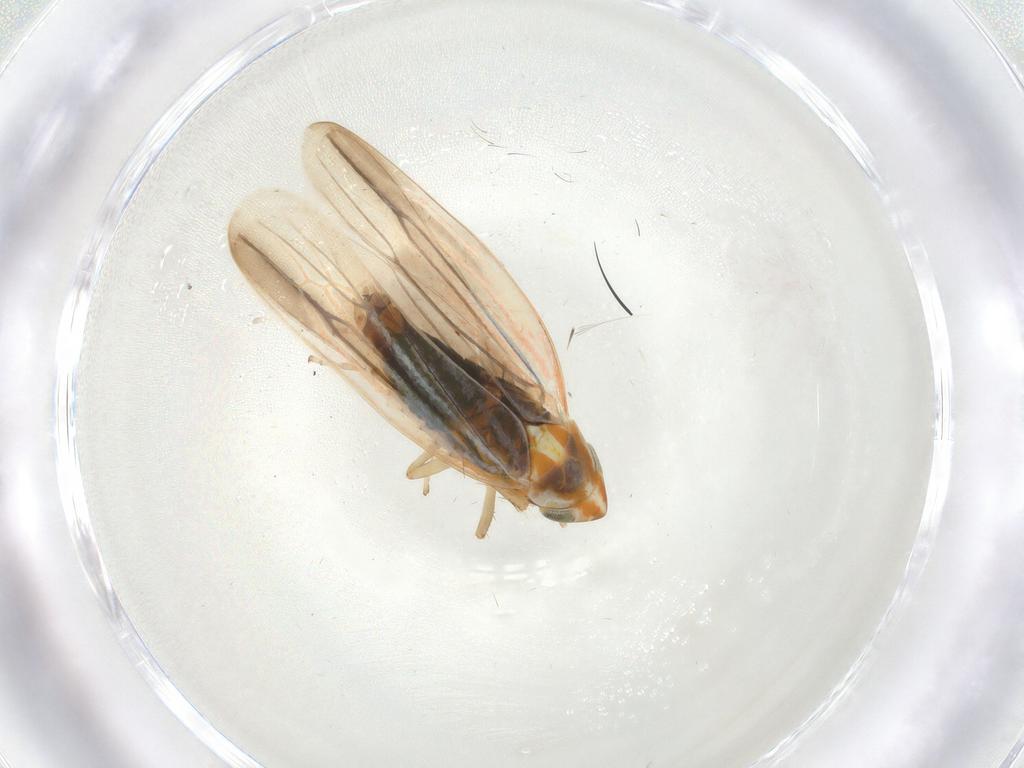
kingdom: Animalia
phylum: Arthropoda
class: Insecta
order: Hemiptera
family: Cicadellidae
